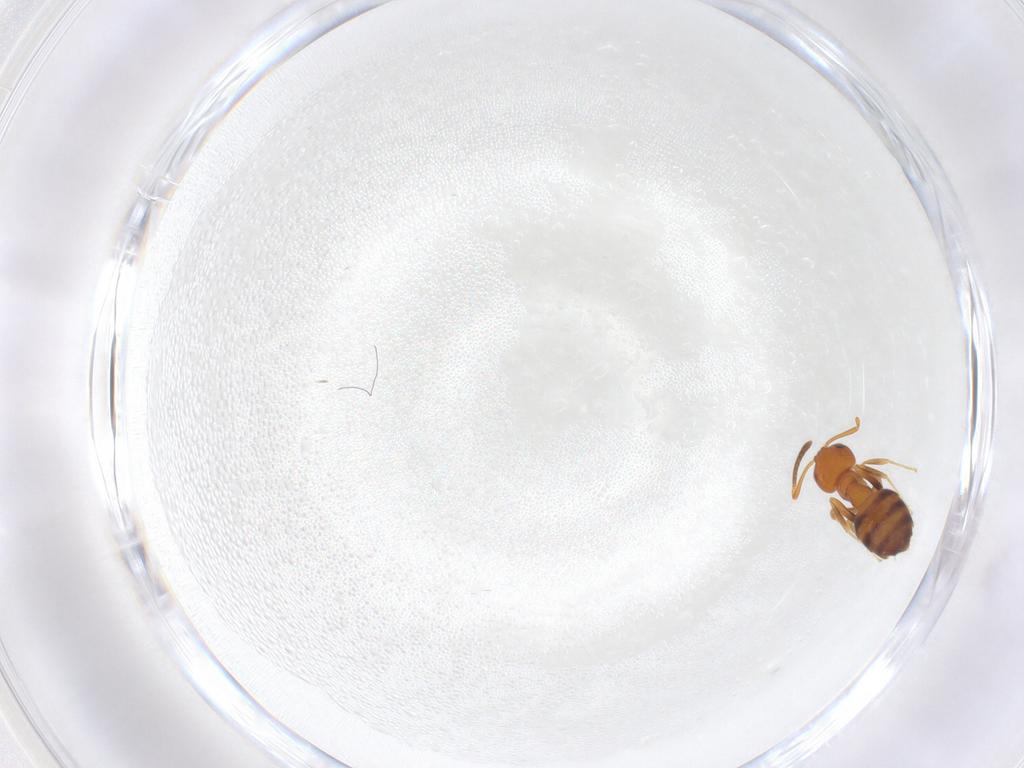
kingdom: Animalia
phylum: Arthropoda
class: Insecta
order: Hymenoptera
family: Formicidae
